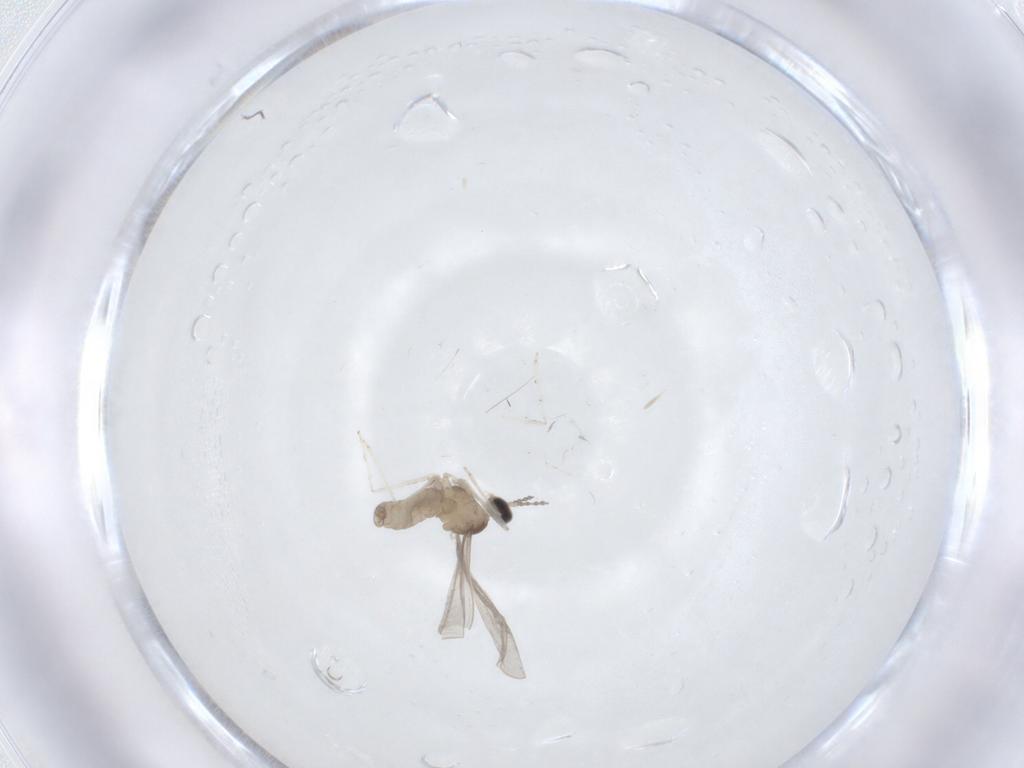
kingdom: Animalia
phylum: Arthropoda
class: Insecta
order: Diptera
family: Cecidomyiidae
